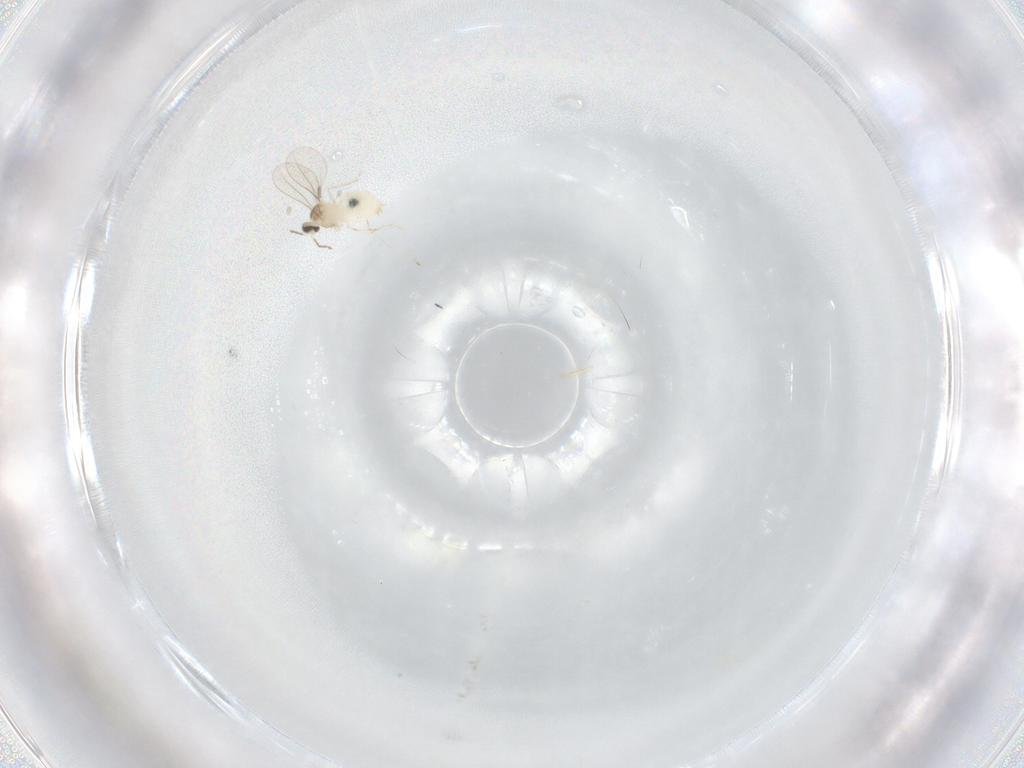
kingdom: Animalia
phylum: Arthropoda
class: Insecta
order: Diptera
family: Cecidomyiidae
